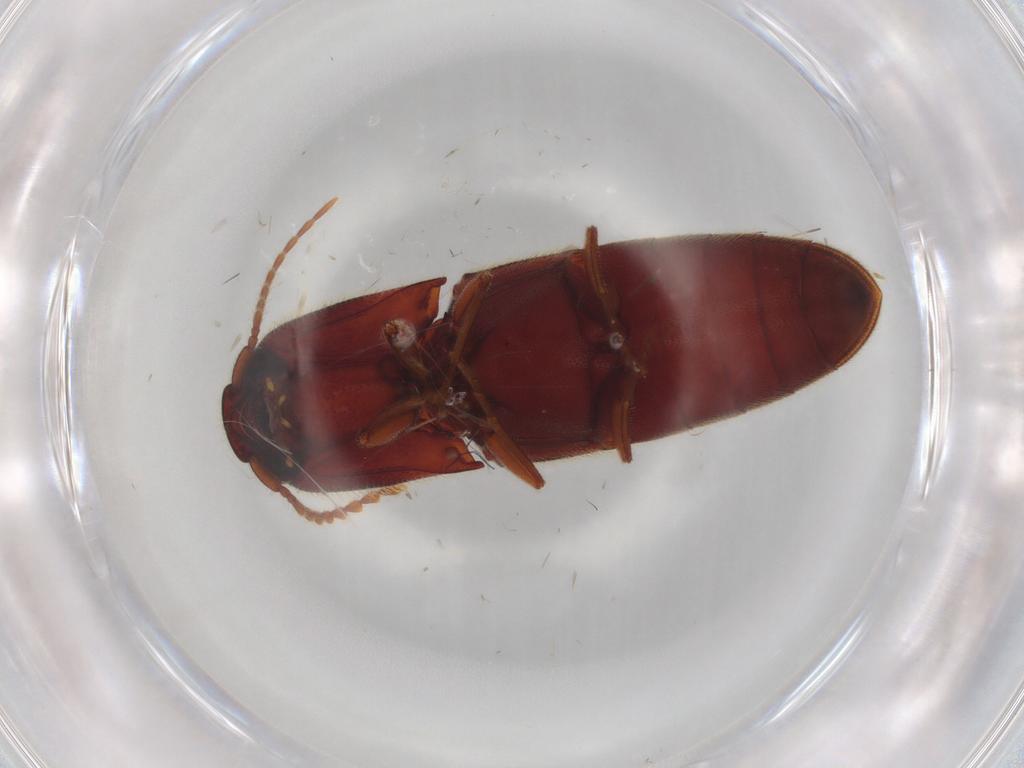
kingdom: Animalia
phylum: Arthropoda
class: Insecta
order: Coleoptera
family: Elateridae
